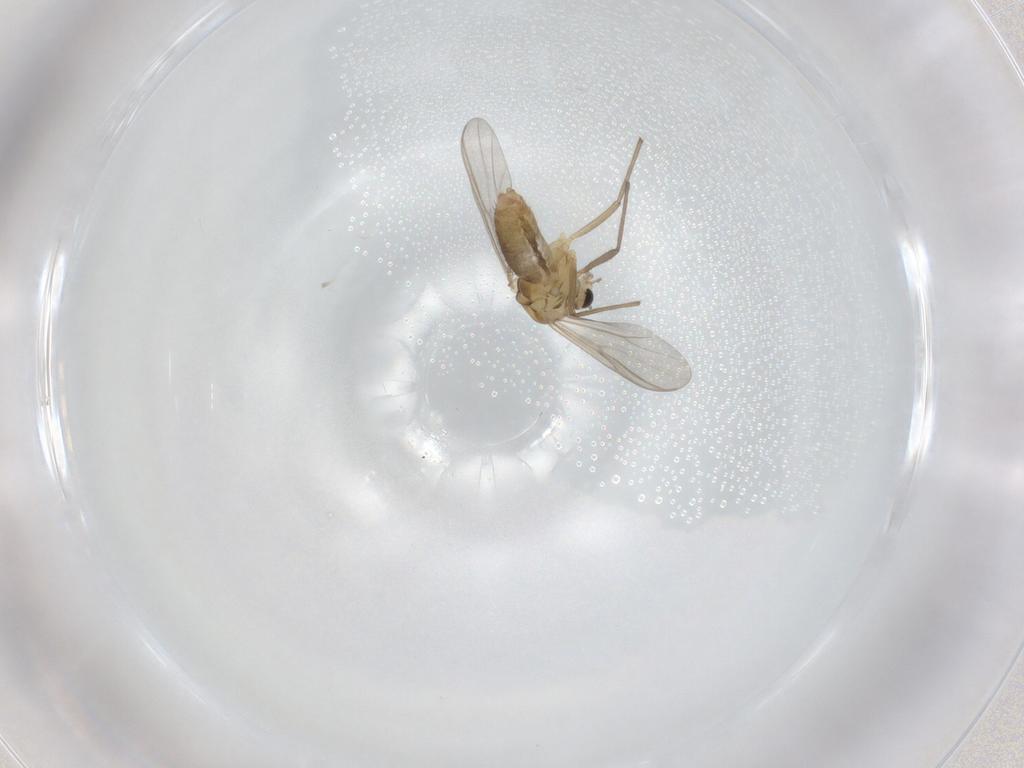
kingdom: Animalia
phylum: Arthropoda
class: Insecta
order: Diptera
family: Chironomidae
